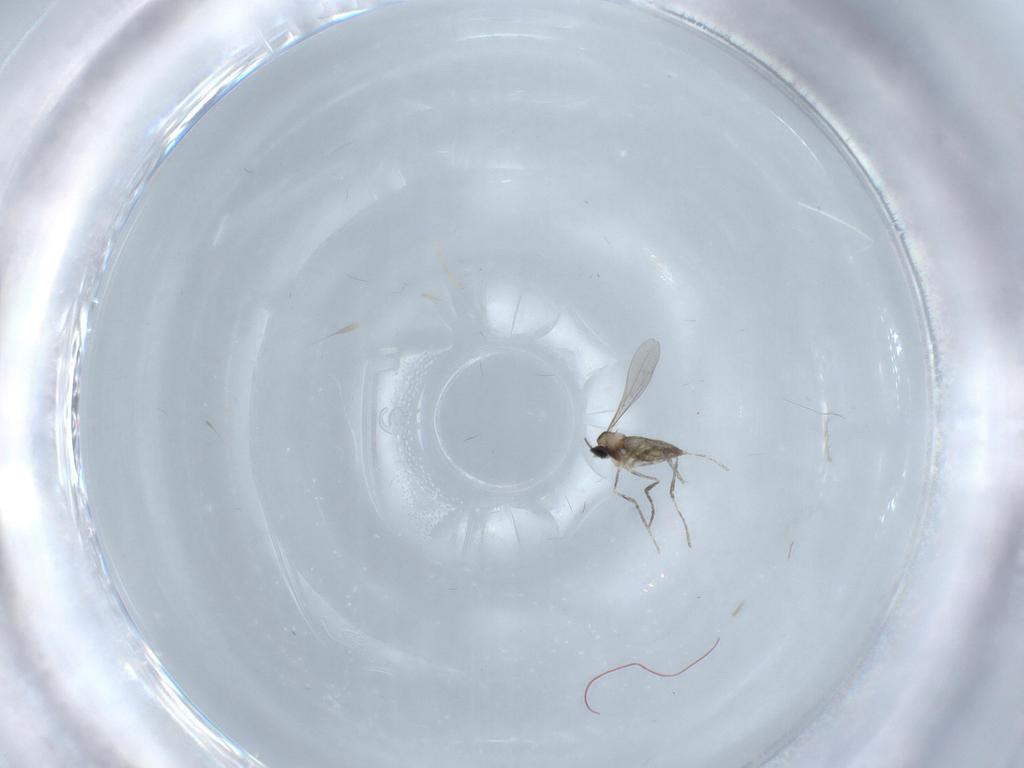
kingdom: Animalia
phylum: Arthropoda
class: Insecta
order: Diptera
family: Cecidomyiidae
